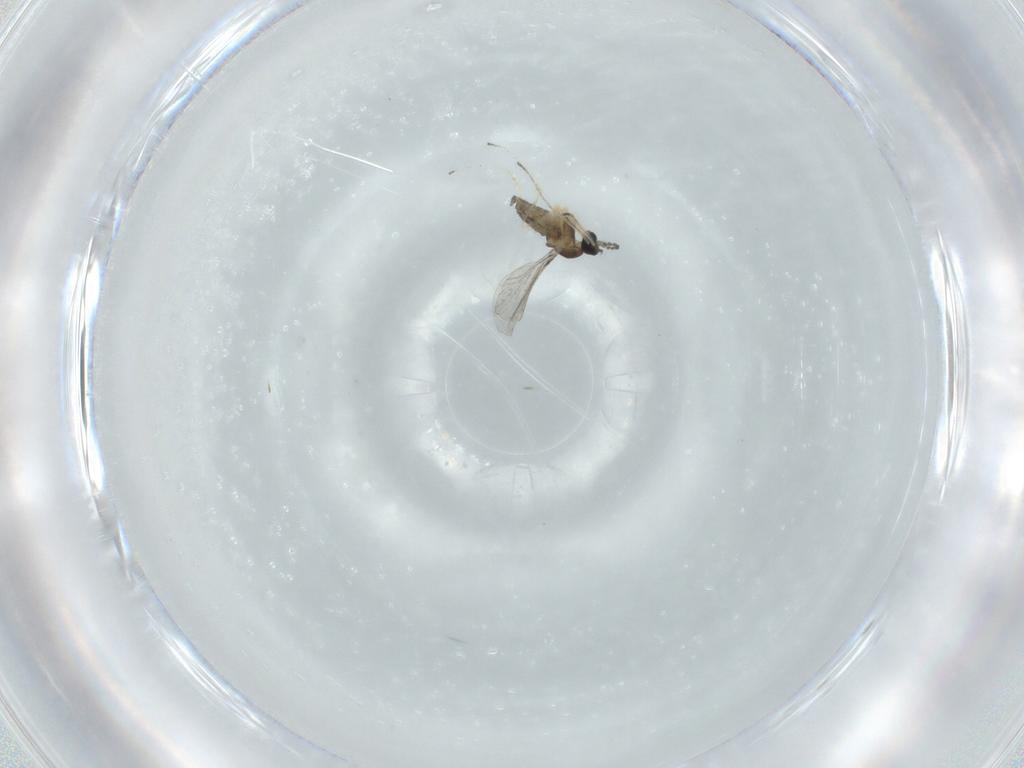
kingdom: Animalia
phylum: Arthropoda
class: Insecta
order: Diptera
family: Cecidomyiidae
